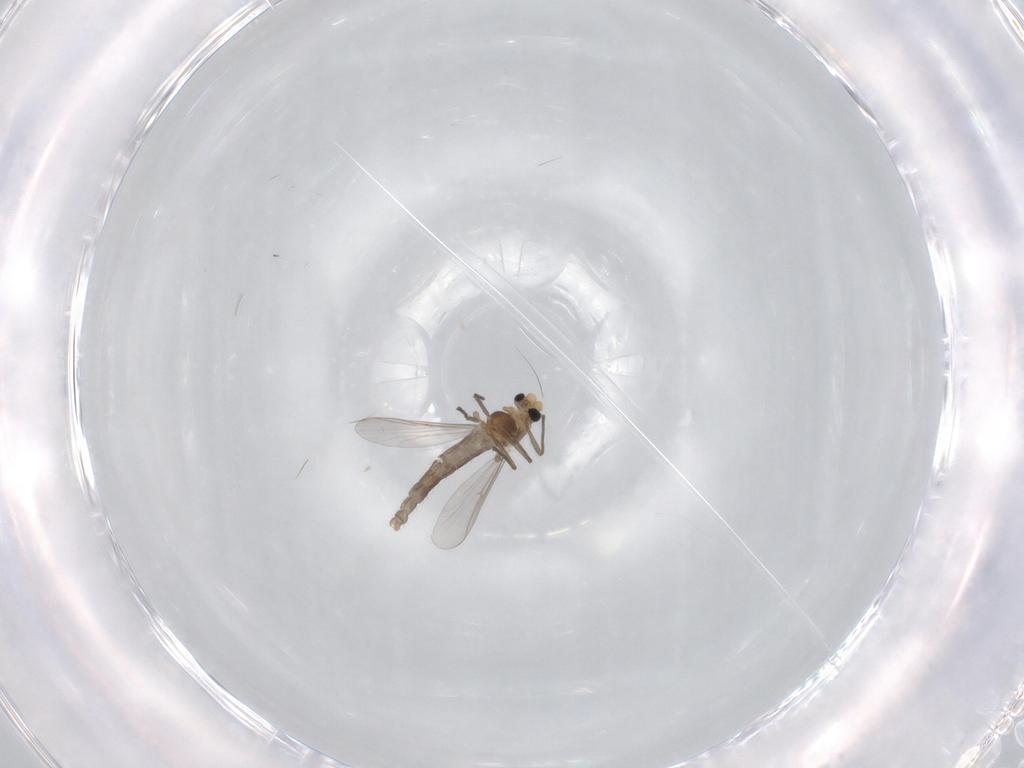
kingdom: Animalia
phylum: Arthropoda
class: Insecta
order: Diptera
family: Chironomidae
